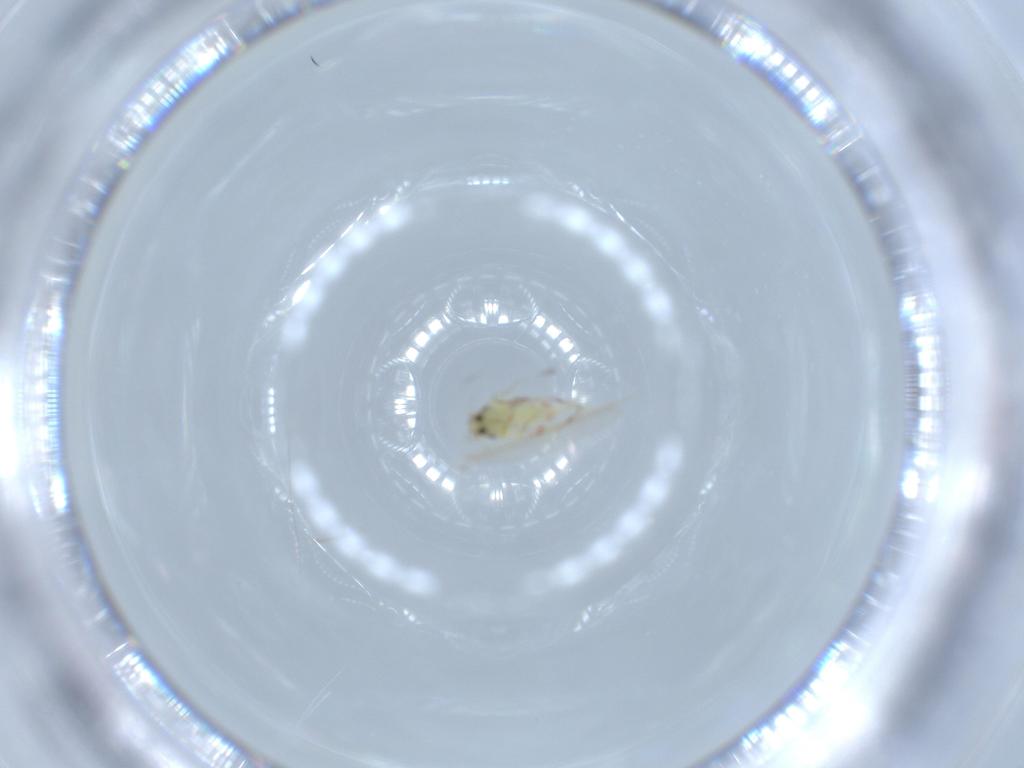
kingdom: Animalia
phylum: Arthropoda
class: Insecta
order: Hemiptera
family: Aleyrodidae
